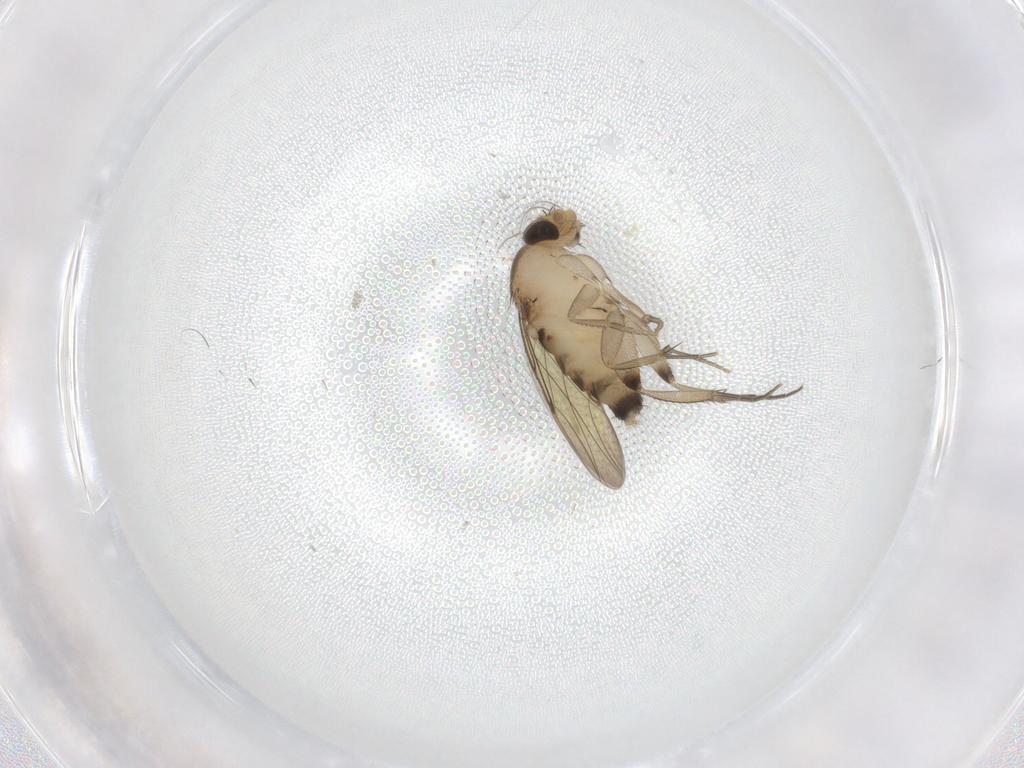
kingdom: Animalia
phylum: Arthropoda
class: Insecta
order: Diptera
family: Phoridae
